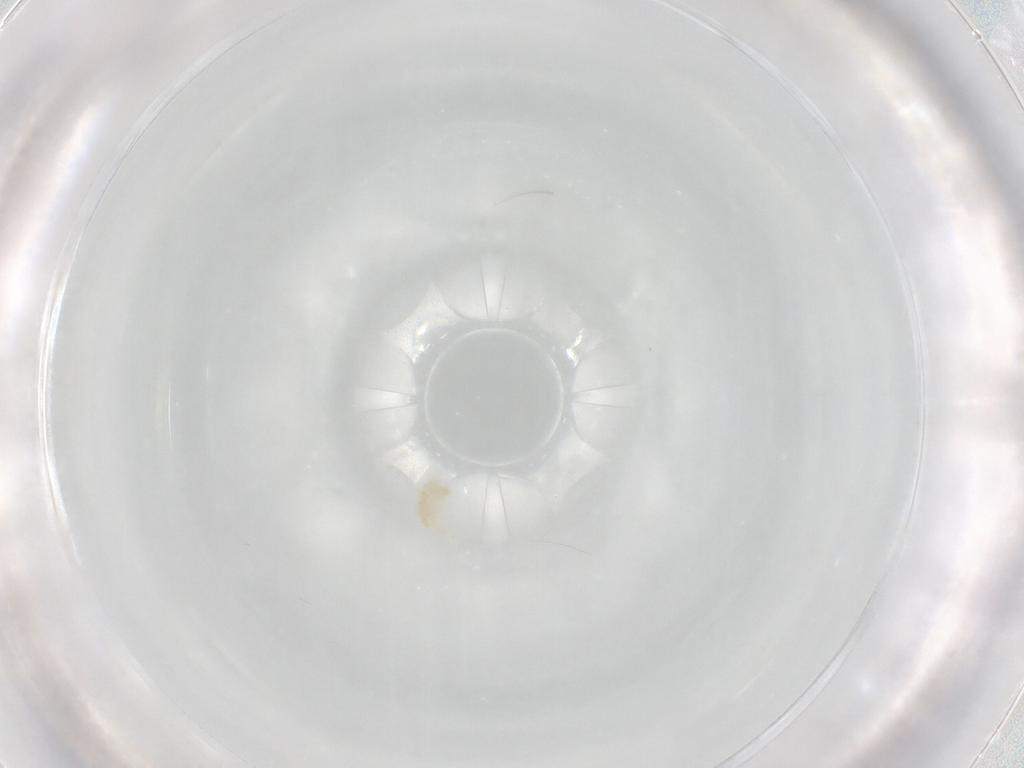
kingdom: Animalia
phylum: Arthropoda
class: Arachnida
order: Trombidiformes
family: Eupodidae
